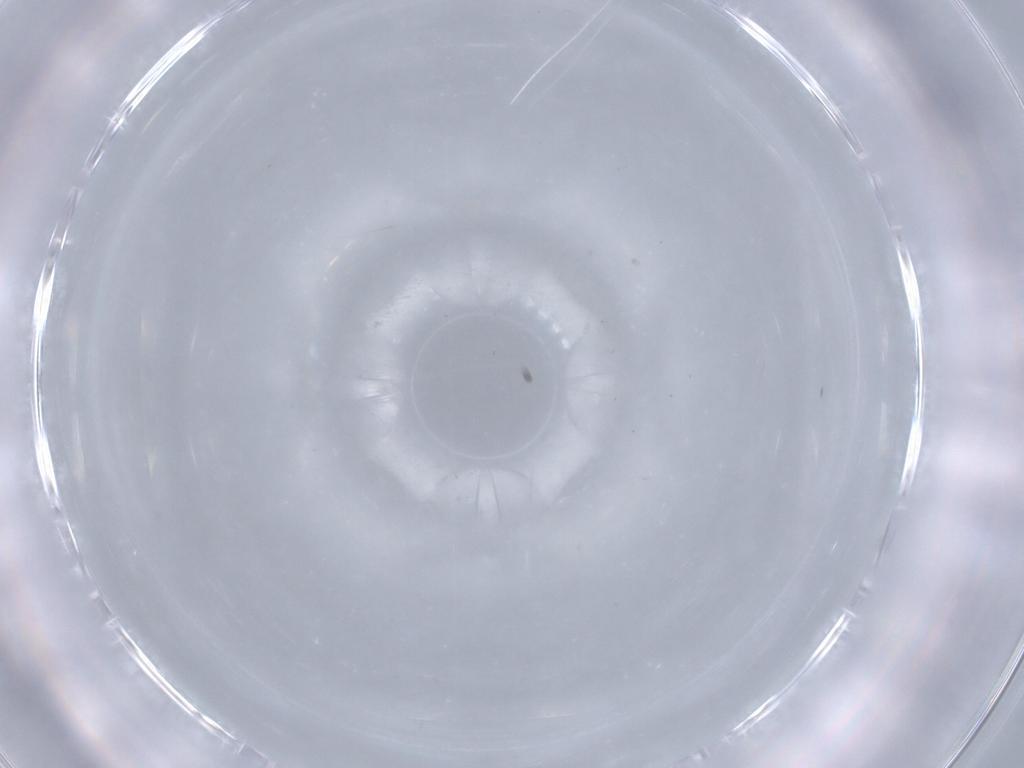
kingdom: Animalia
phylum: Arthropoda
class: Insecta
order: Diptera
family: Cecidomyiidae
